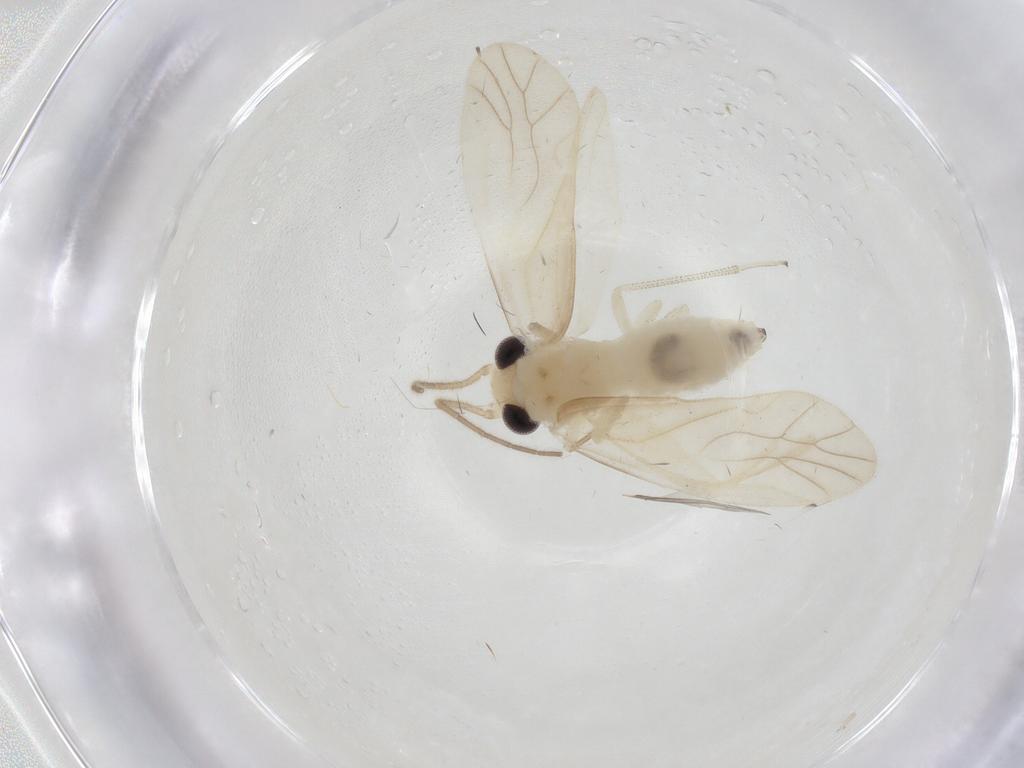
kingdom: Animalia
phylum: Arthropoda
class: Insecta
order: Psocodea
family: Caeciliusidae
